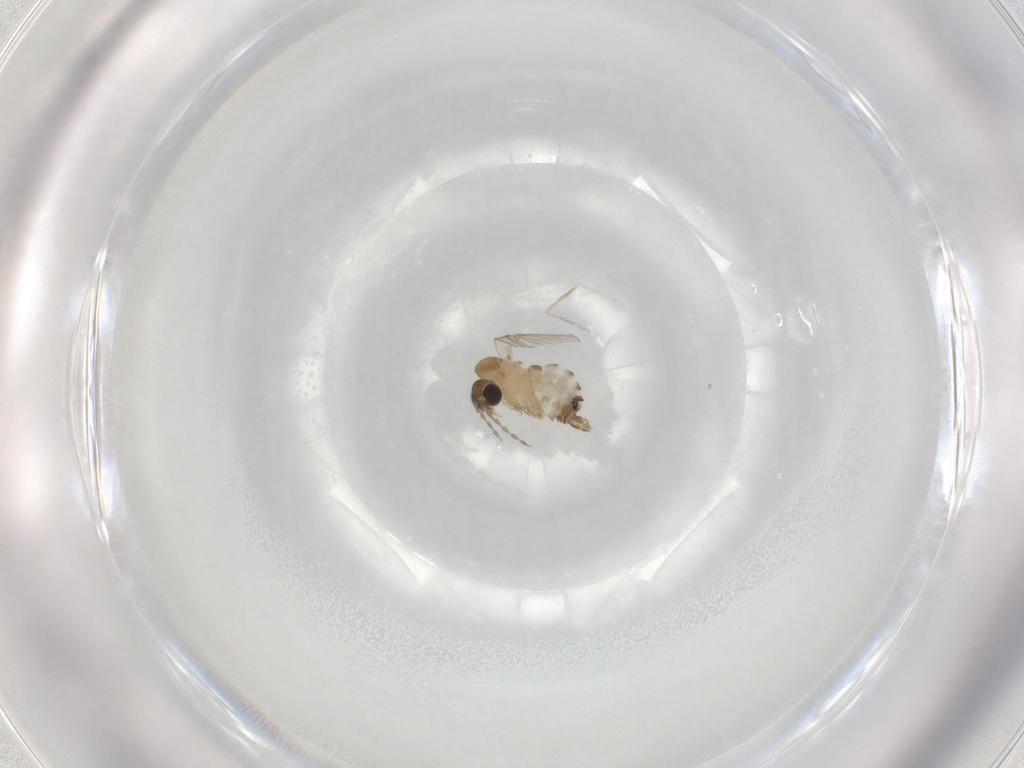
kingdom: Animalia
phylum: Arthropoda
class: Insecta
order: Diptera
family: Psychodidae
